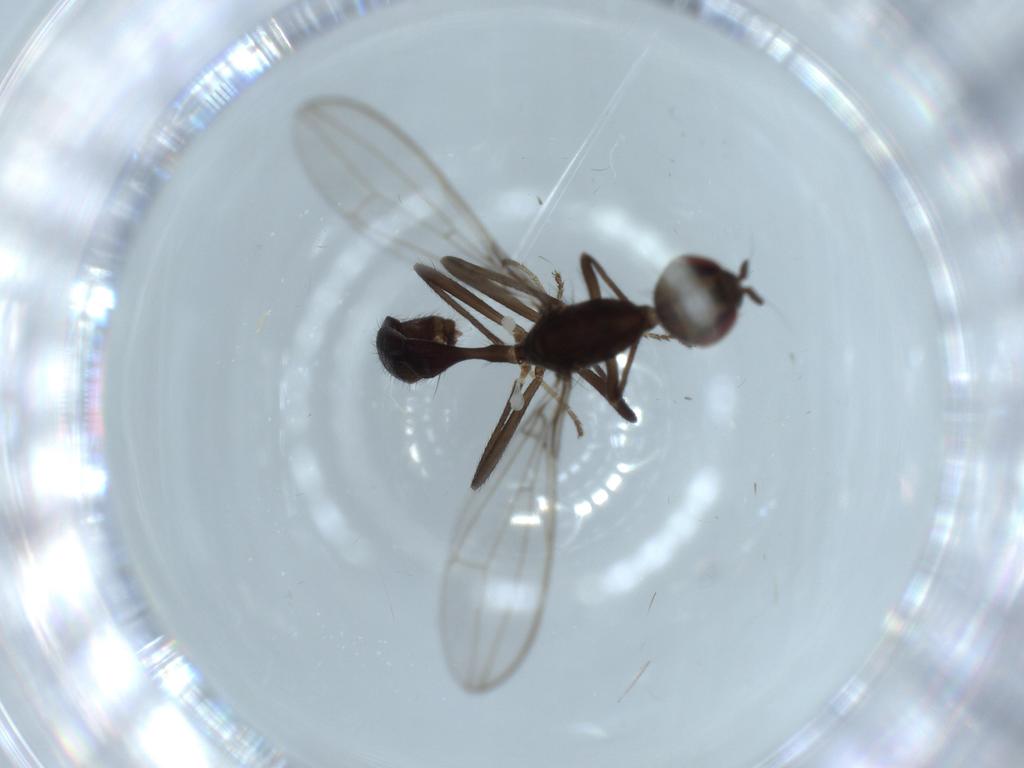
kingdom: Animalia
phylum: Arthropoda
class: Insecta
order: Diptera
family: Richardiidae
